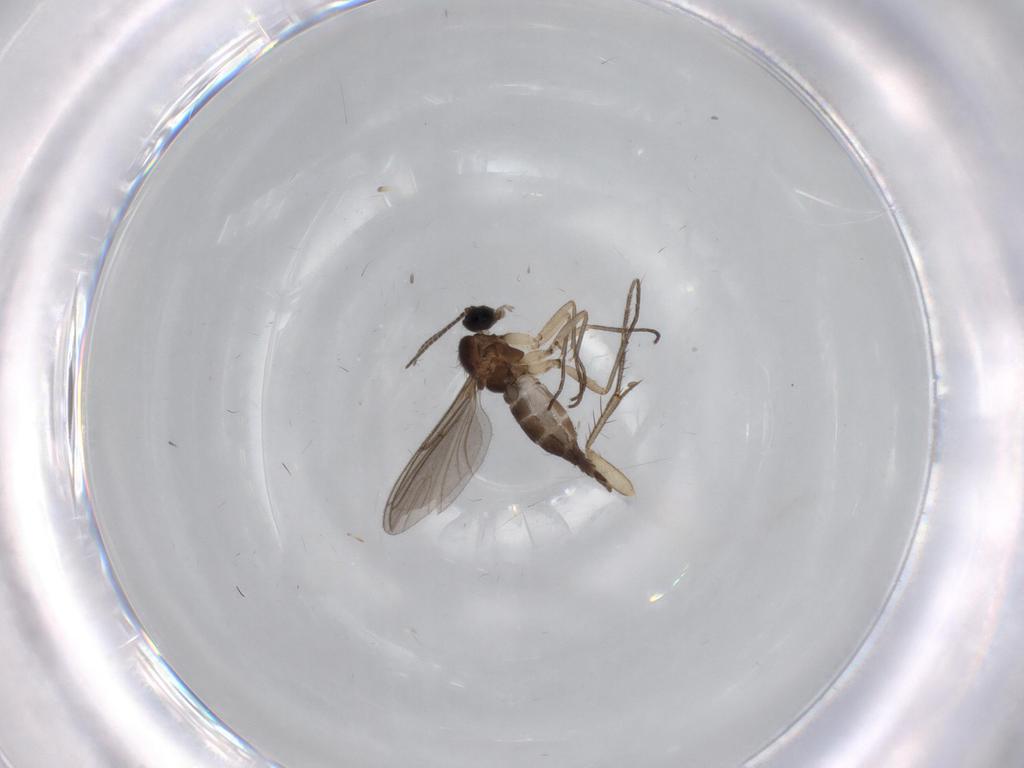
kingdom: Animalia
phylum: Arthropoda
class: Insecta
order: Diptera
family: Sciaridae
